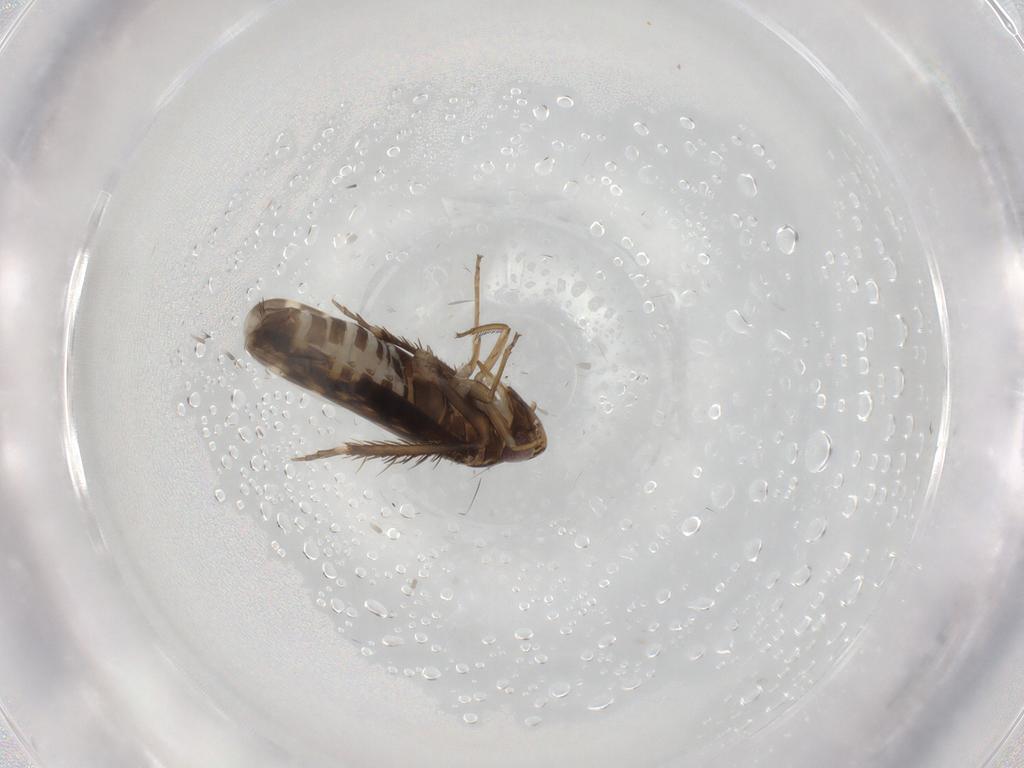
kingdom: Animalia
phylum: Arthropoda
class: Insecta
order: Hemiptera
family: Cicadellidae
